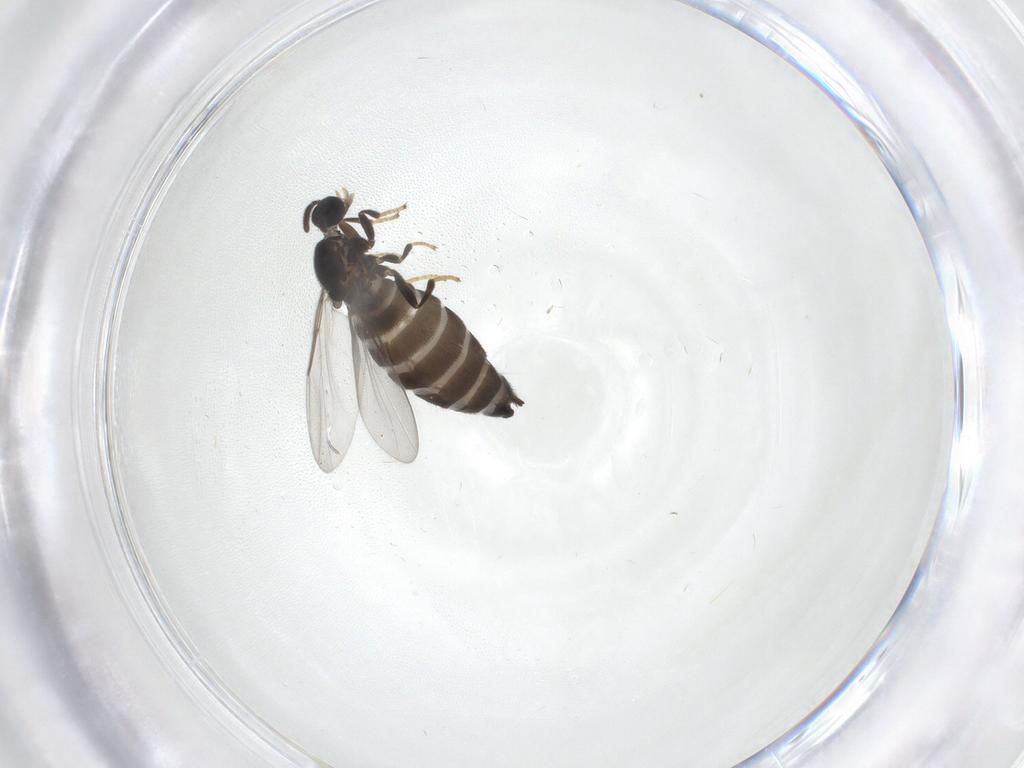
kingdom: Animalia
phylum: Arthropoda
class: Insecta
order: Diptera
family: Scatopsidae
